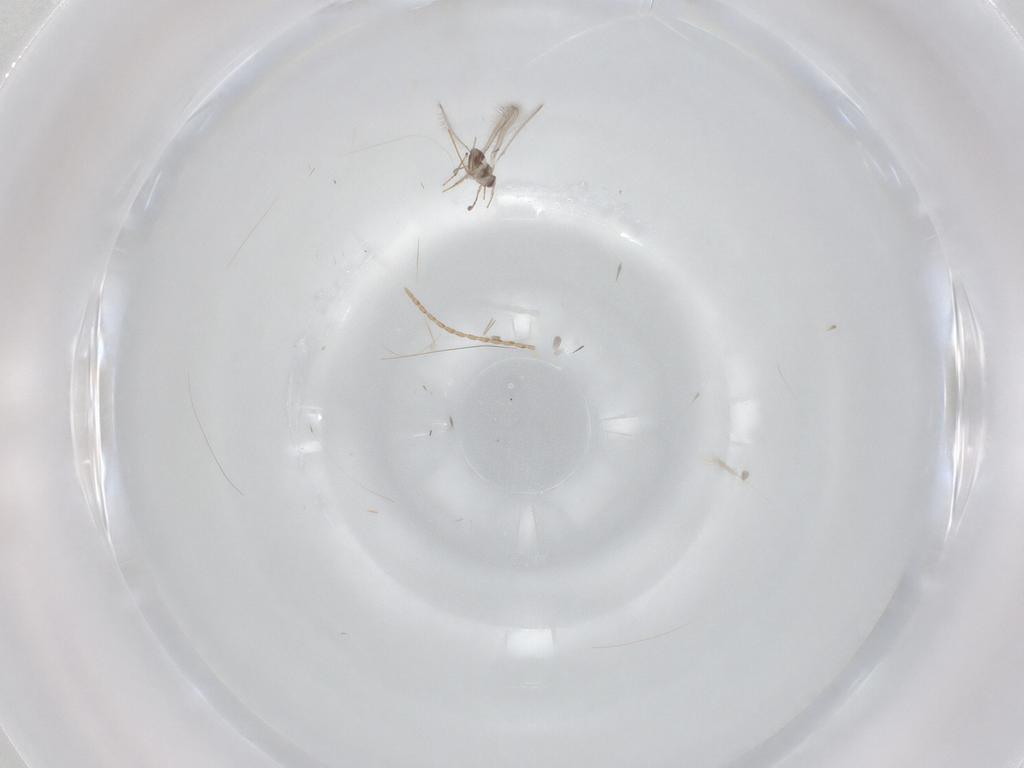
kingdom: Animalia
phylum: Arthropoda
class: Insecta
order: Hymenoptera
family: Mymaridae
